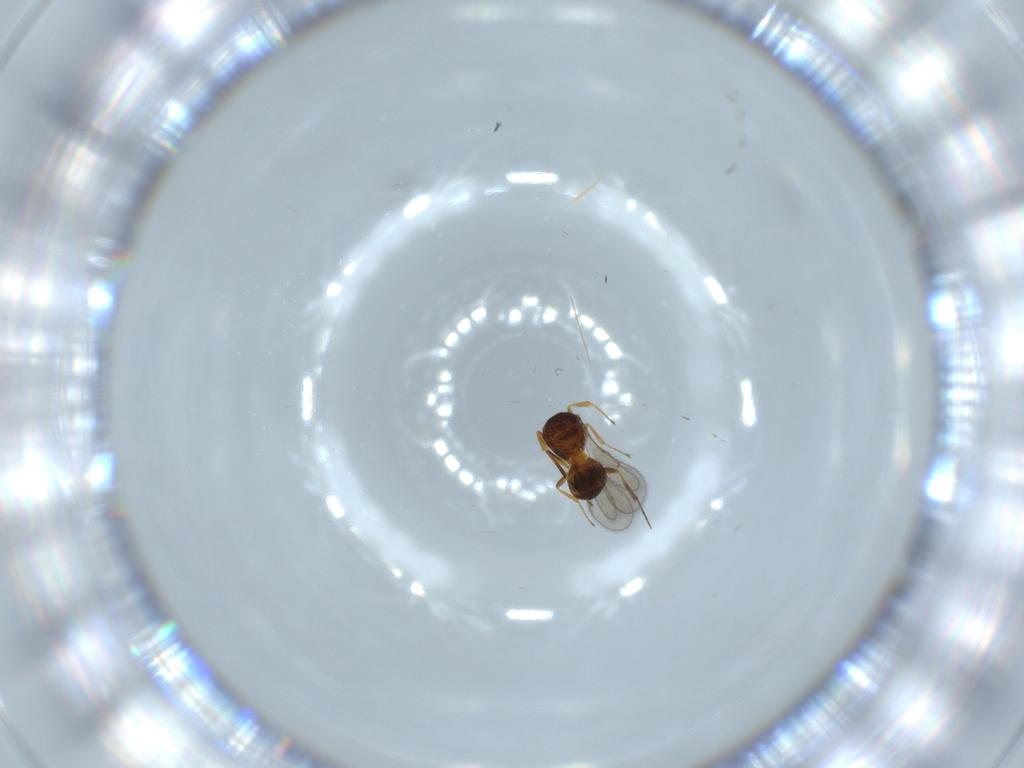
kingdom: Animalia
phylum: Arthropoda
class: Insecta
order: Hymenoptera
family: Scelionidae
